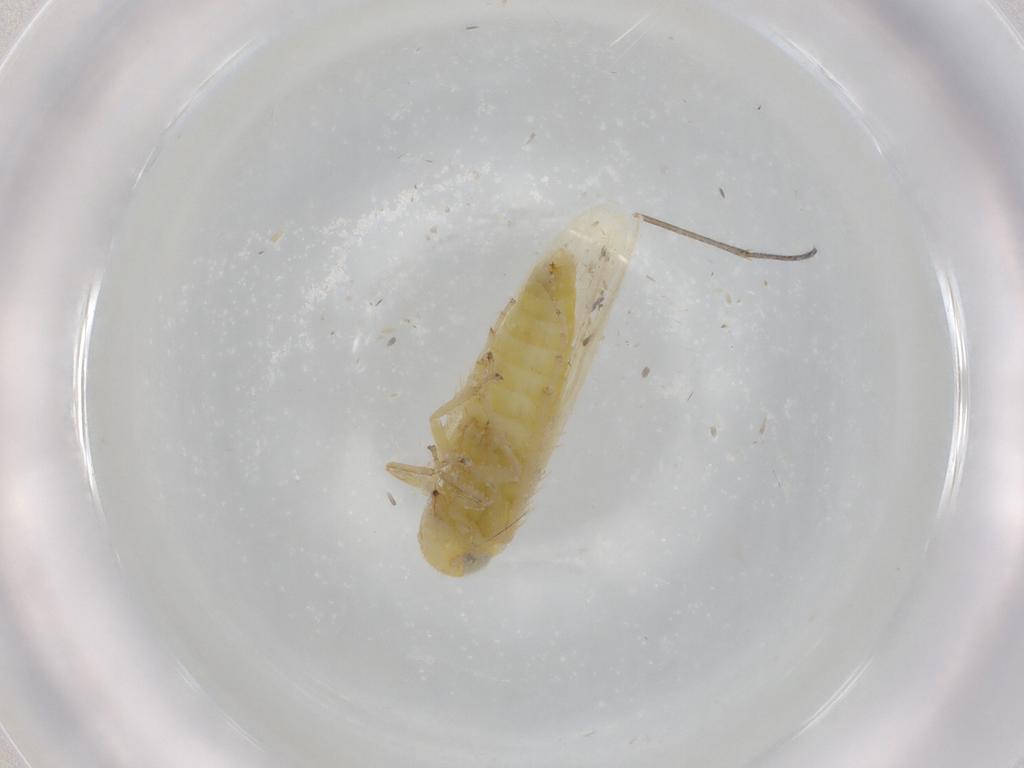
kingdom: Animalia
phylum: Arthropoda
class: Insecta
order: Hemiptera
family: Cicadellidae
